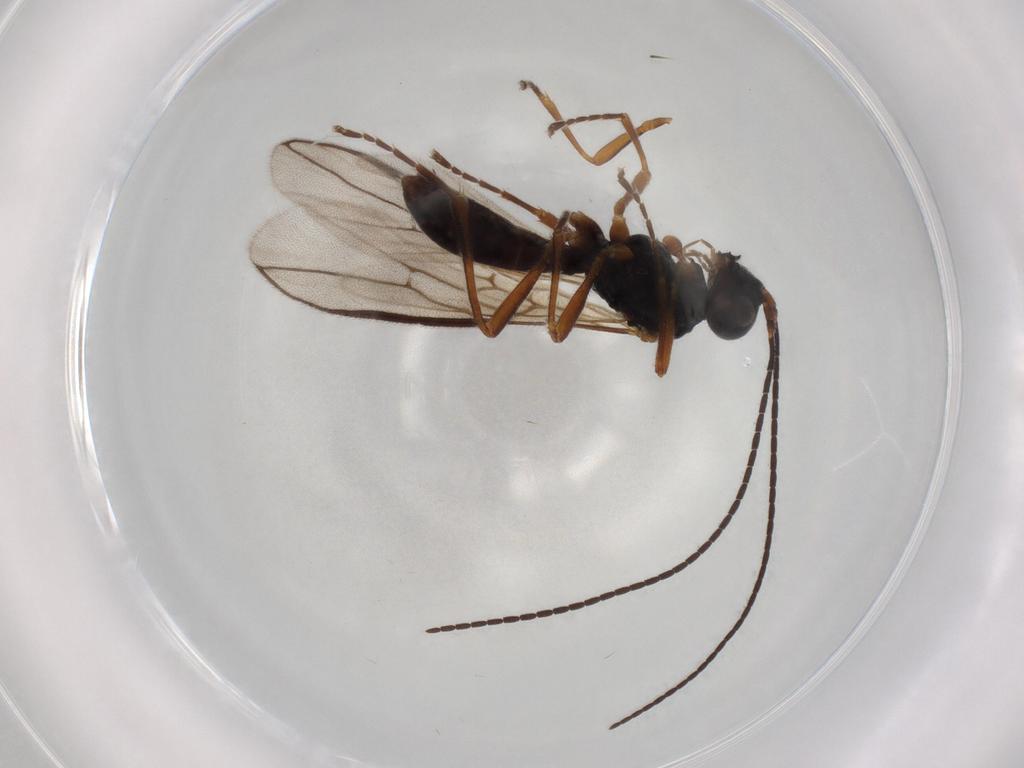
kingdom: Animalia
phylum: Arthropoda
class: Insecta
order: Hymenoptera
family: Braconidae
